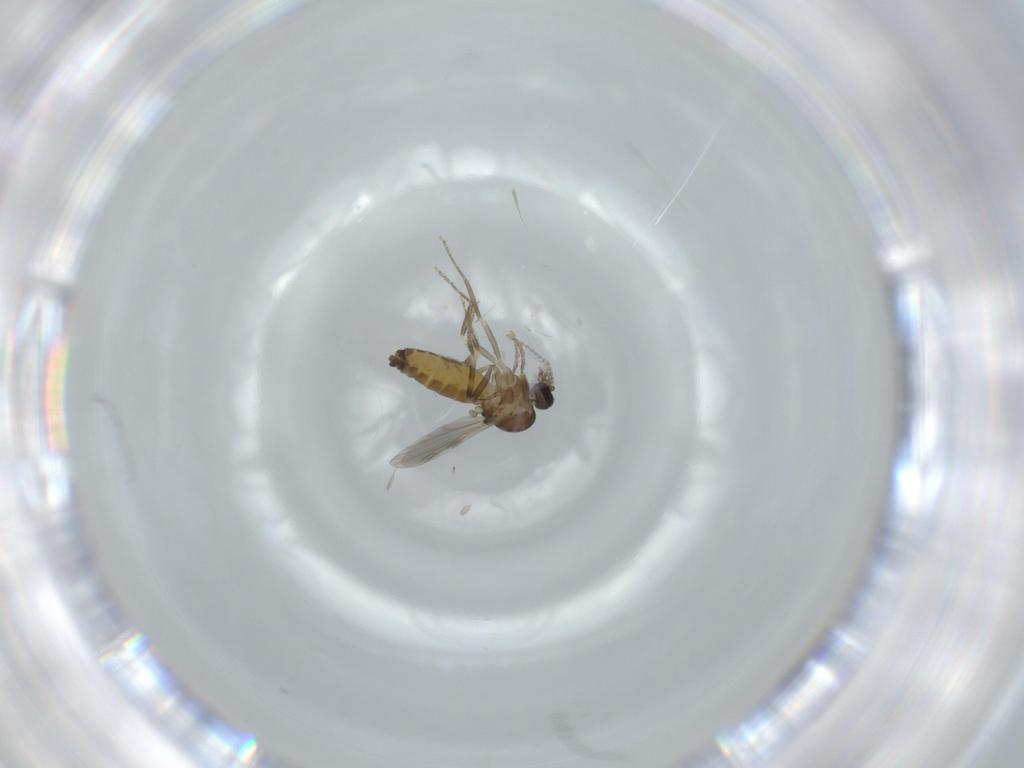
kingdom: Animalia
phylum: Arthropoda
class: Insecta
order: Diptera
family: Ceratopogonidae
